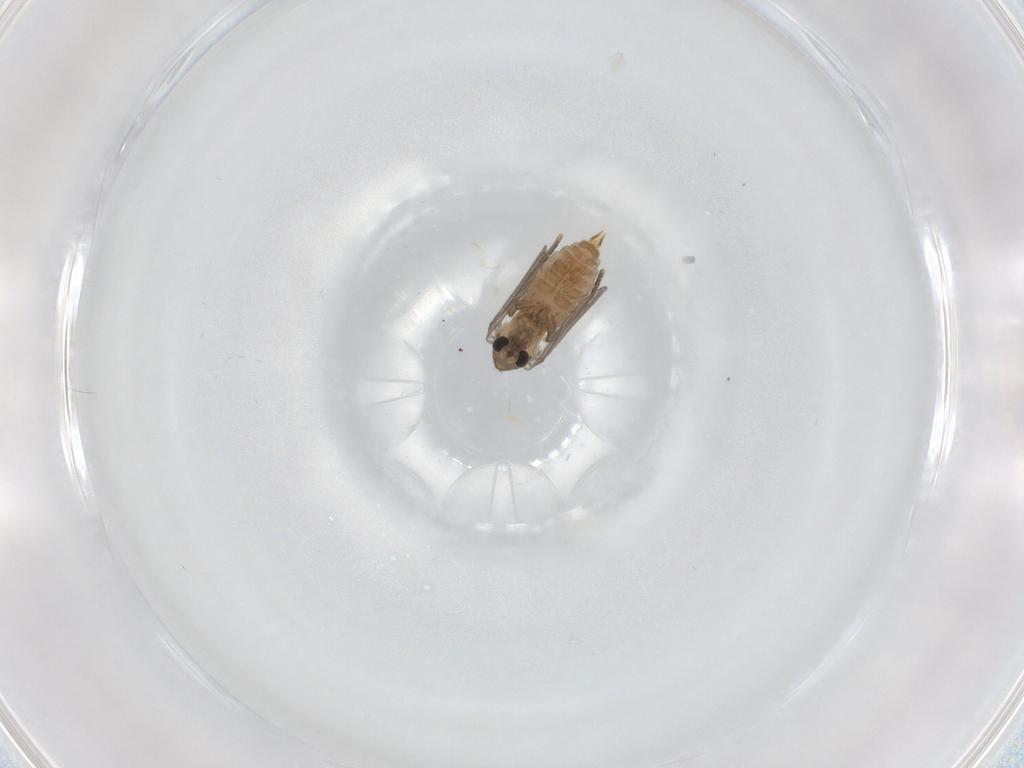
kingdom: Animalia
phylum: Arthropoda
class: Insecta
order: Diptera
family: Psychodidae
